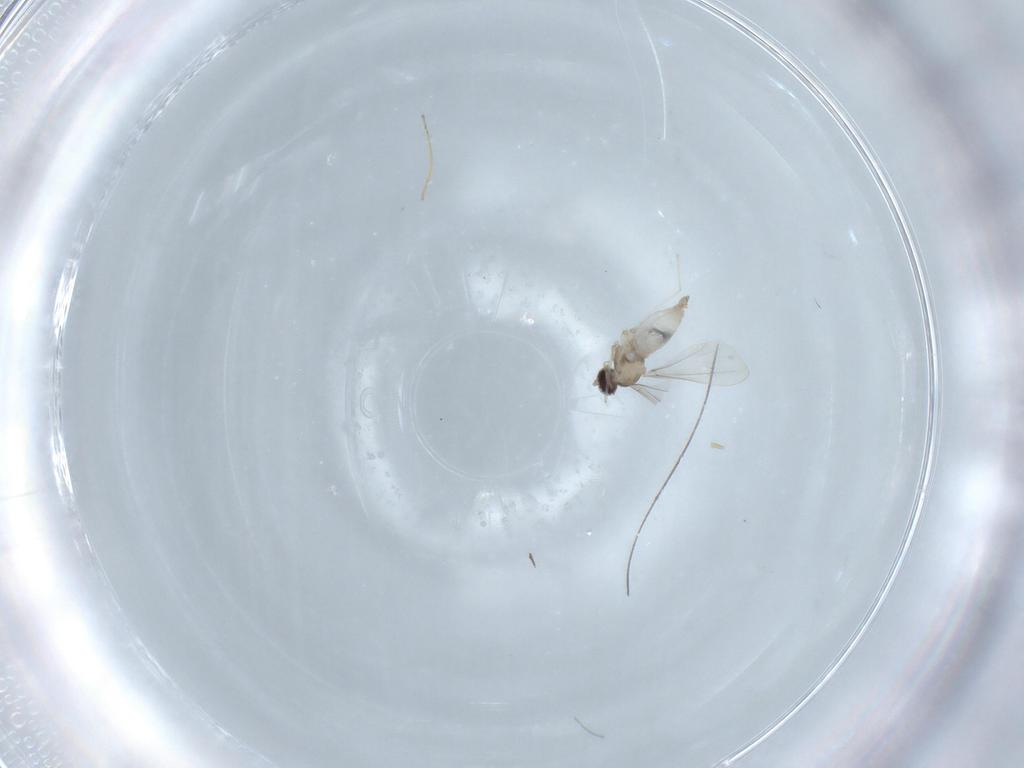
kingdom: Animalia
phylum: Arthropoda
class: Insecta
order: Diptera
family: Cecidomyiidae
